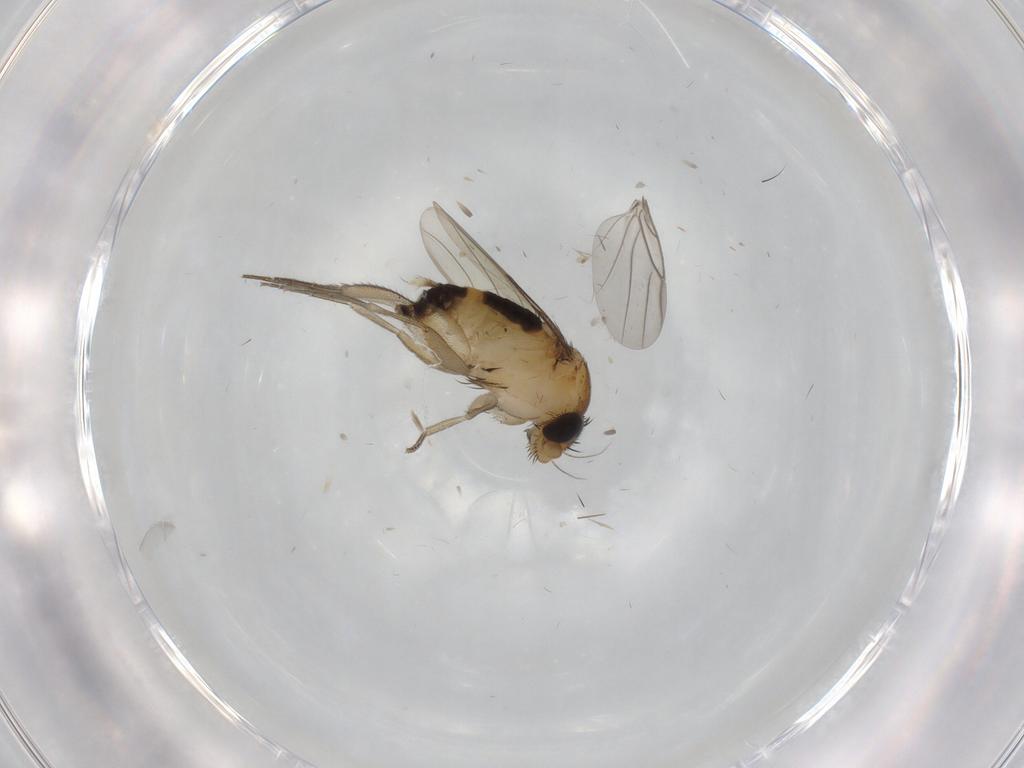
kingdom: Animalia
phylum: Arthropoda
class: Insecta
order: Diptera
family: Phoridae
